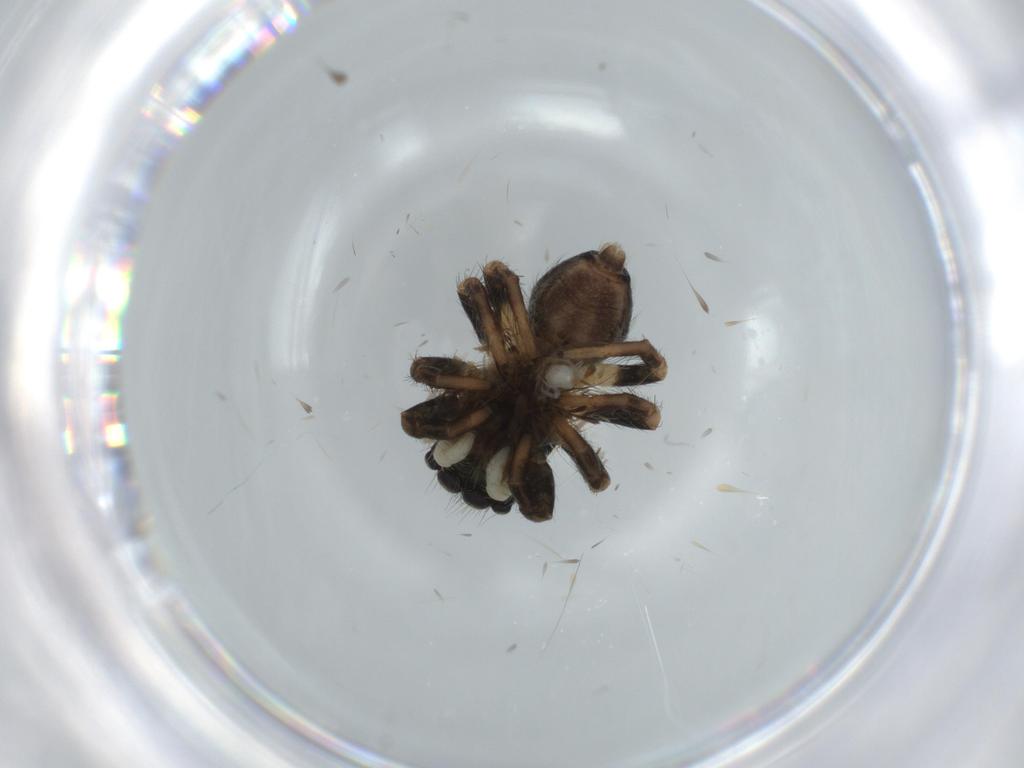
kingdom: Animalia
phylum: Arthropoda
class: Arachnida
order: Araneae
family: Salticidae
